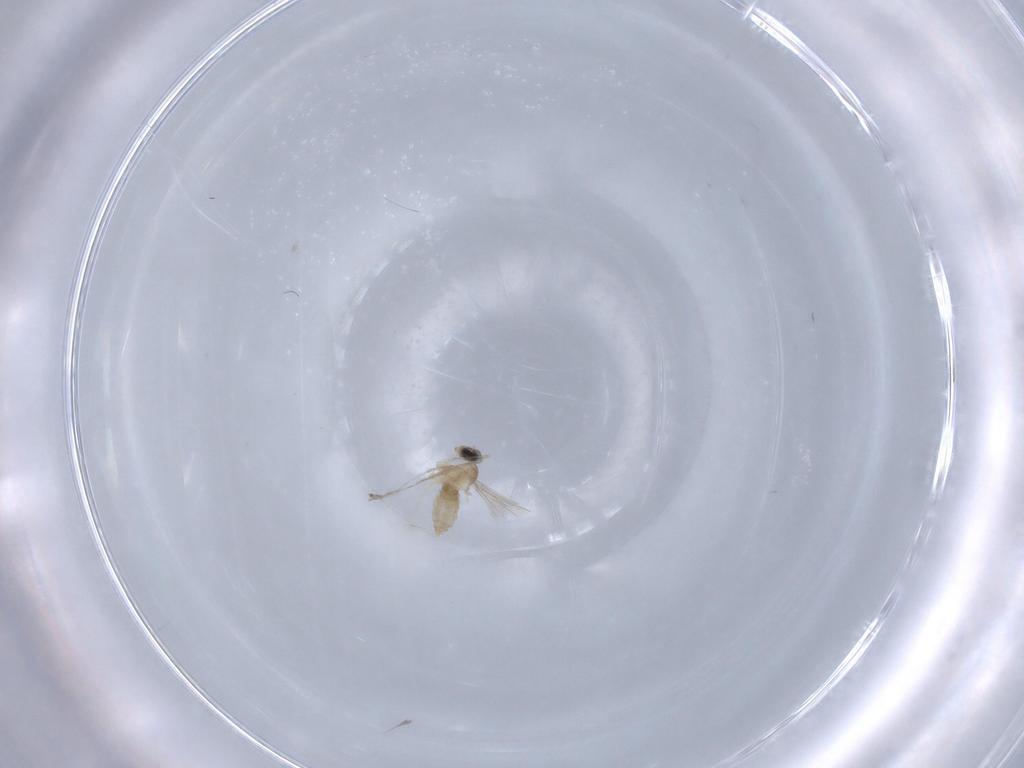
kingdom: Animalia
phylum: Arthropoda
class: Insecta
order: Diptera
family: Cecidomyiidae
